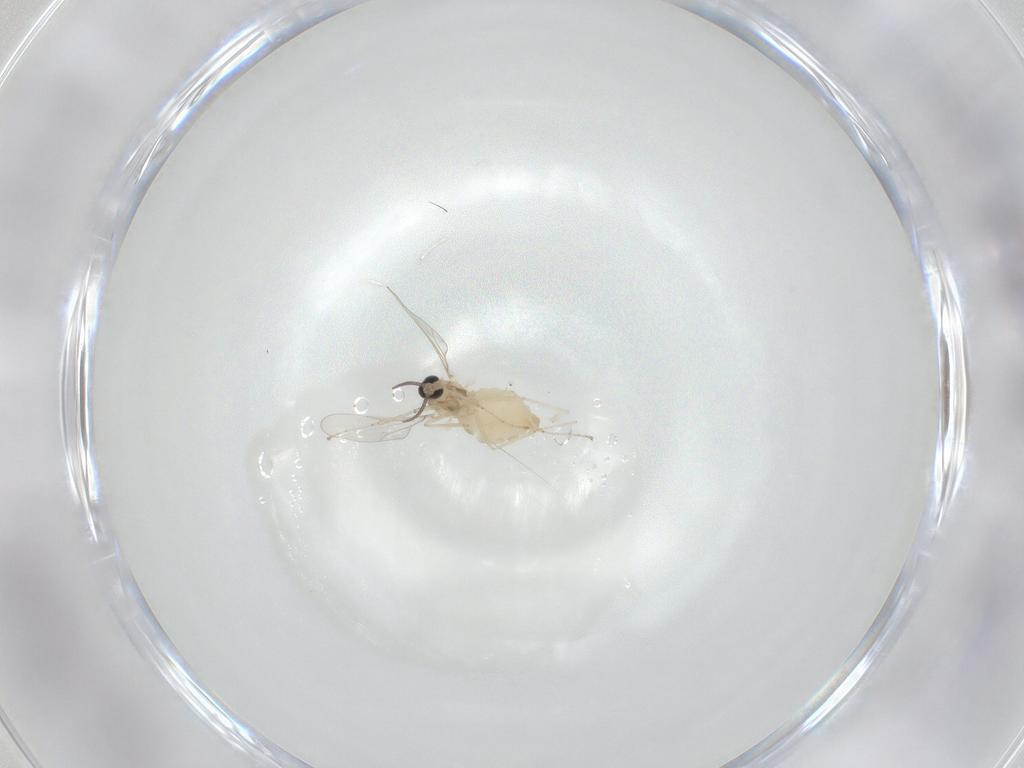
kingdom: Animalia
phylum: Arthropoda
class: Insecta
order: Diptera
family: Cecidomyiidae
